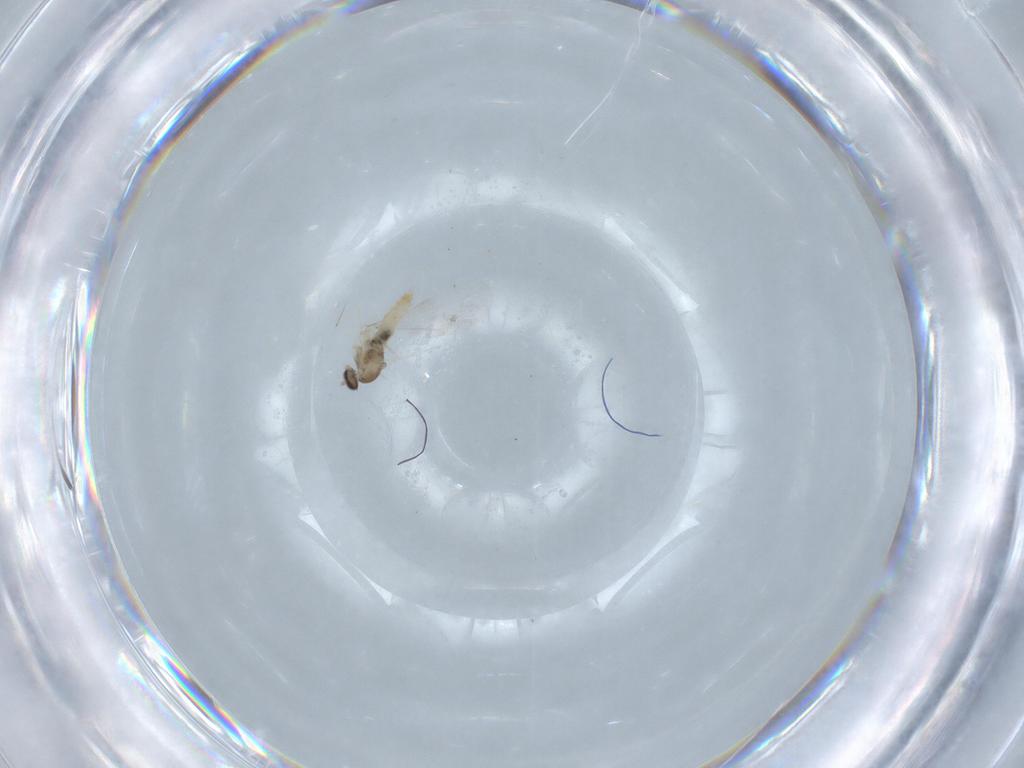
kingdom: Animalia
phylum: Arthropoda
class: Insecta
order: Diptera
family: Cecidomyiidae
